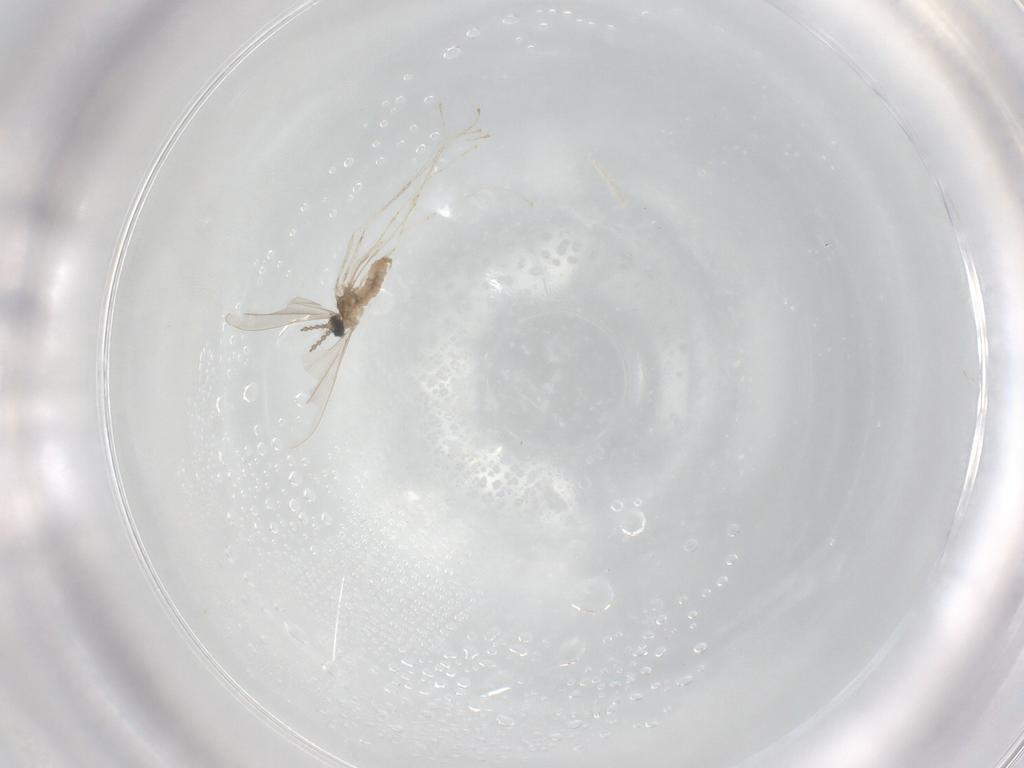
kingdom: Animalia
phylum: Arthropoda
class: Insecta
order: Diptera
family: Cecidomyiidae
